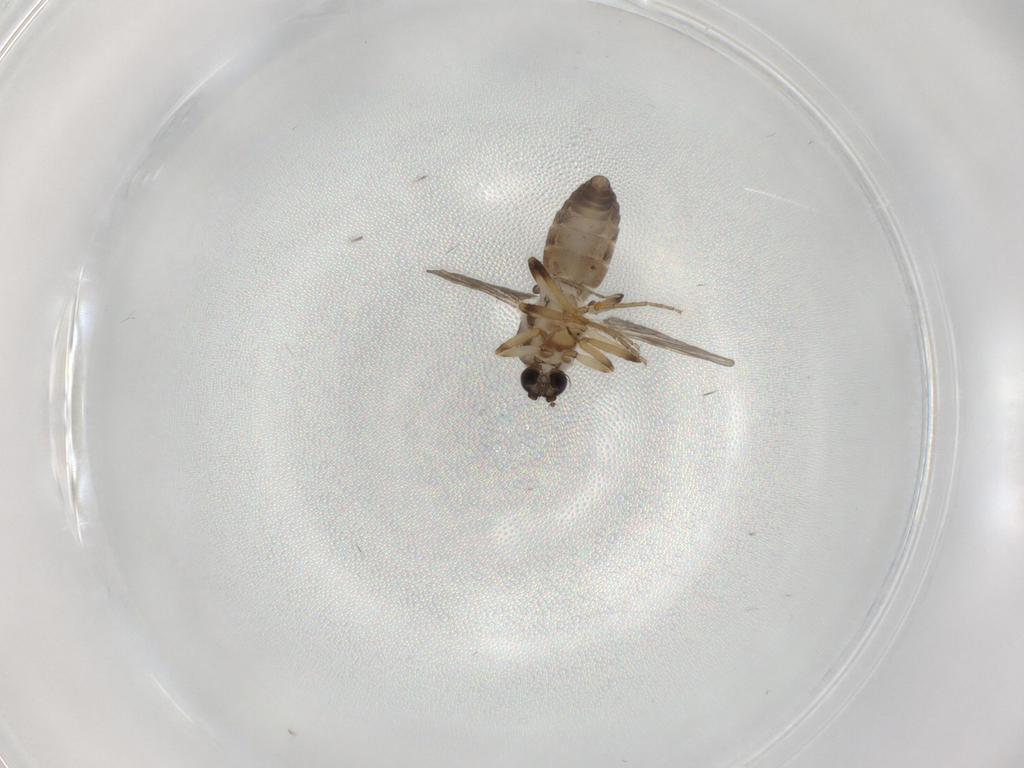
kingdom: Animalia
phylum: Arthropoda
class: Insecta
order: Diptera
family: Ceratopogonidae
